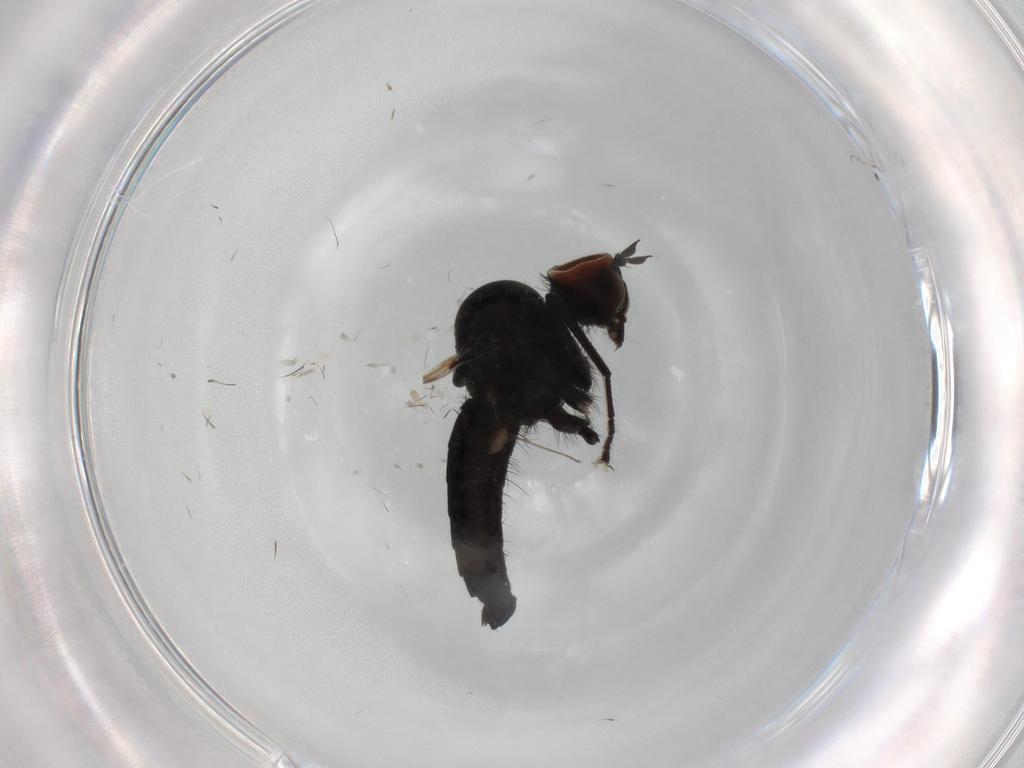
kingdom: Animalia
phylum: Arthropoda
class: Insecta
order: Diptera
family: Hybotidae
